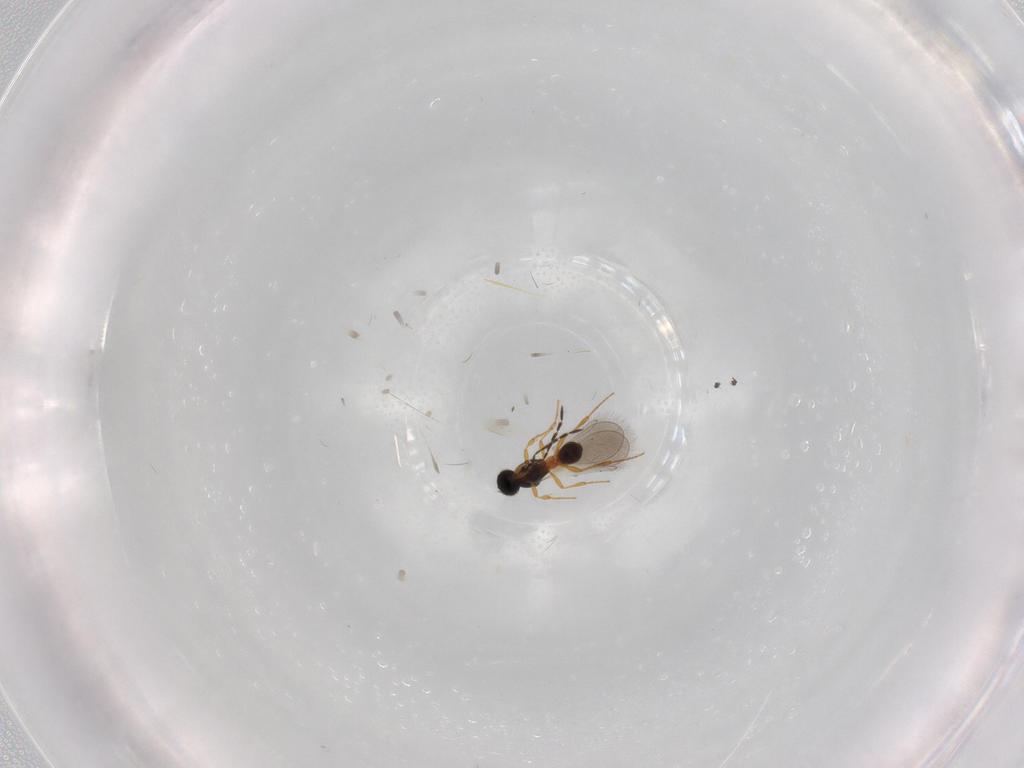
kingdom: Animalia
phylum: Arthropoda
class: Insecta
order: Hymenoptera
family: Platygastridae
